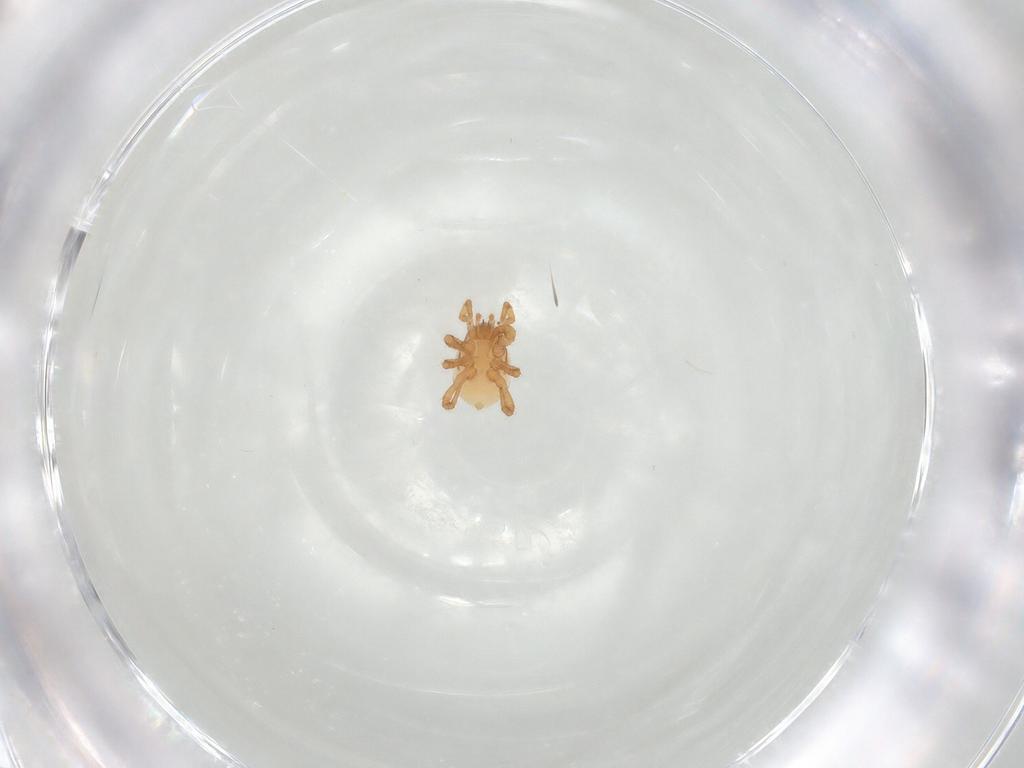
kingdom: Animalia
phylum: Arthropoda
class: Arachnida
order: Mesostigmata
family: Parasitidae
